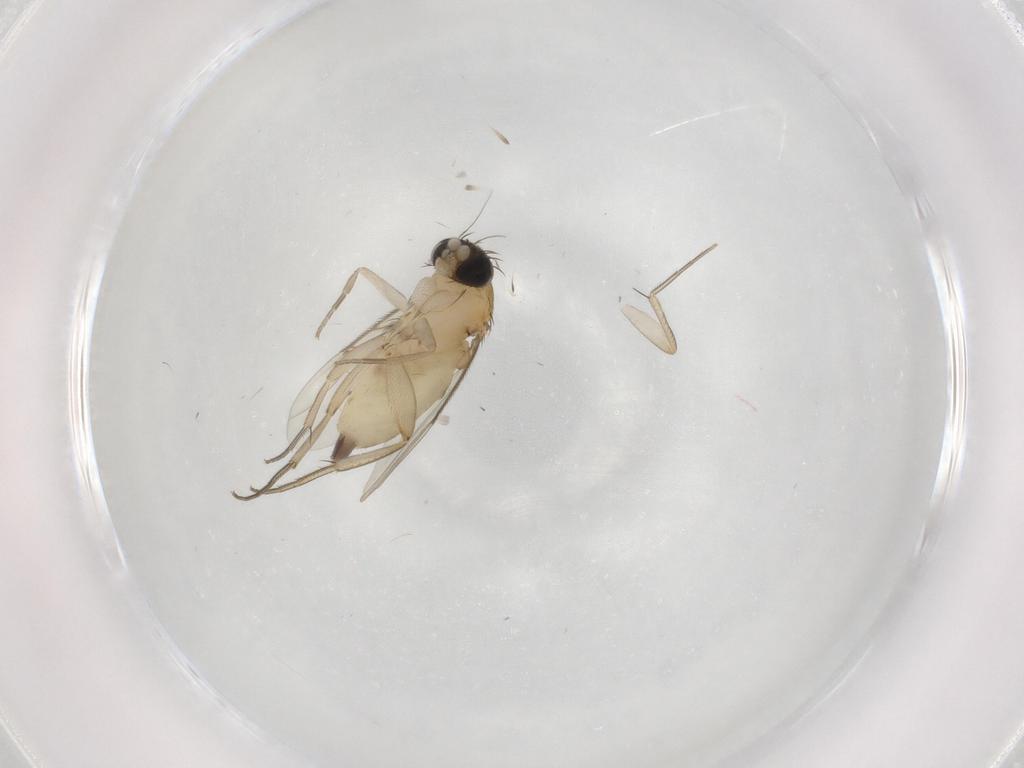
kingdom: Animalia
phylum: Arthropoda
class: Insecta
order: Diptera
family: Phoridae
